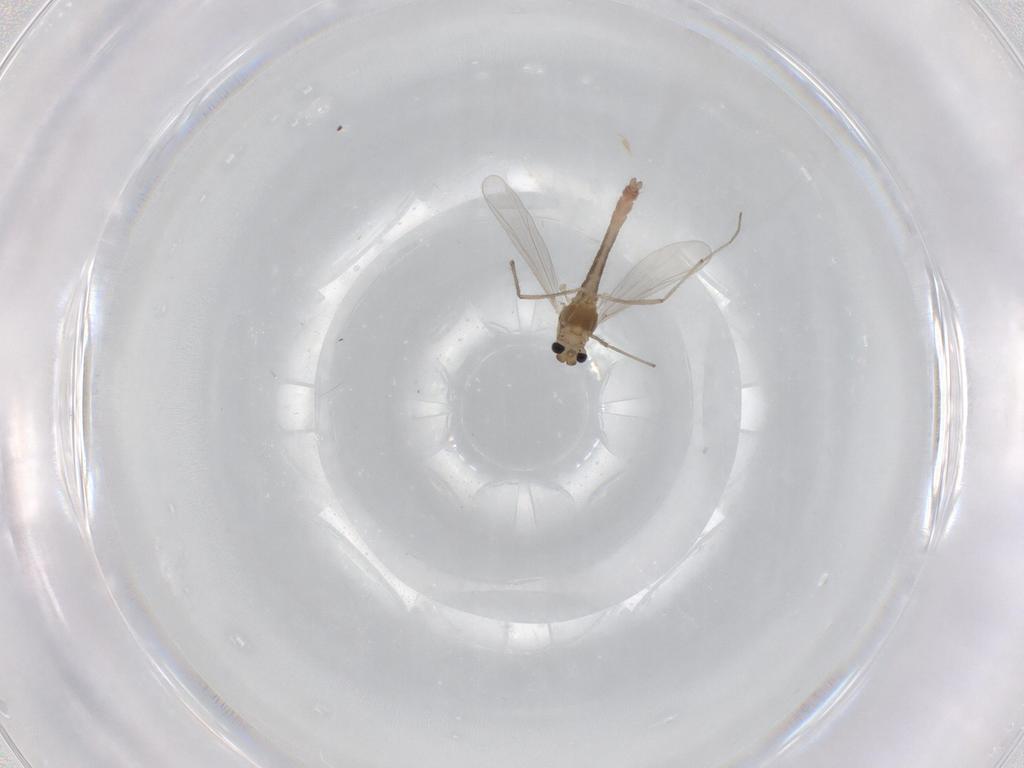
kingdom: Animalia
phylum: Arthropoda
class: Insecta
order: Diptera
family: Chironomidae
